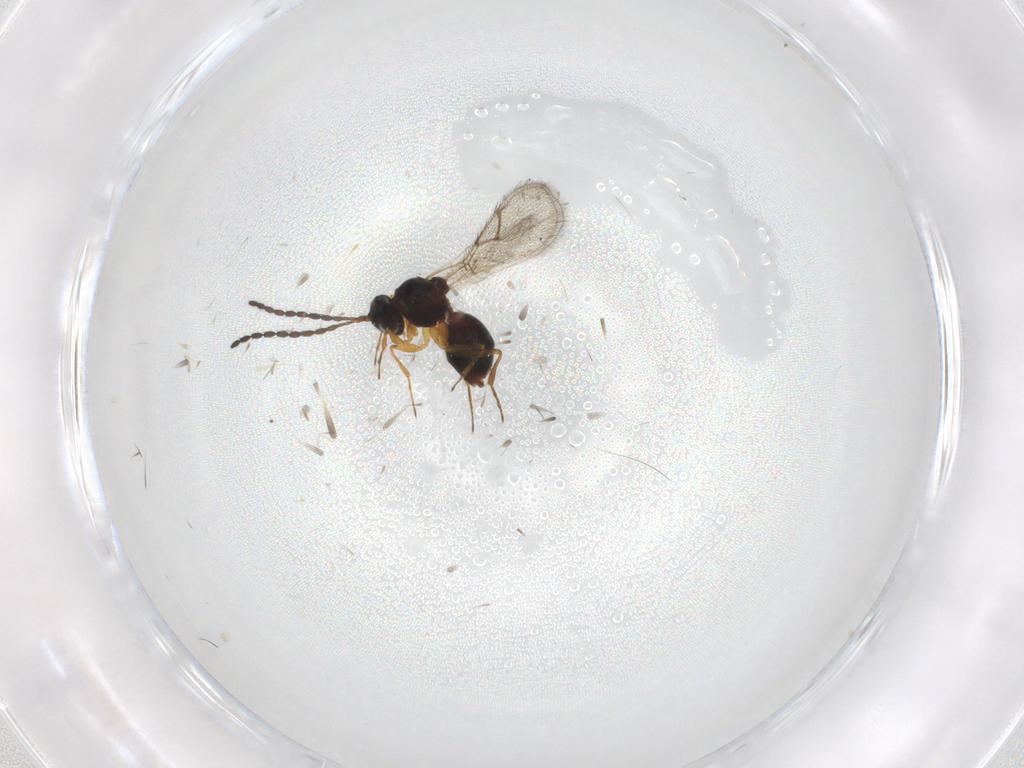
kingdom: Animalia
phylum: Arthropoda
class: Insecta
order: Hymenoptera
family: Figitidae
